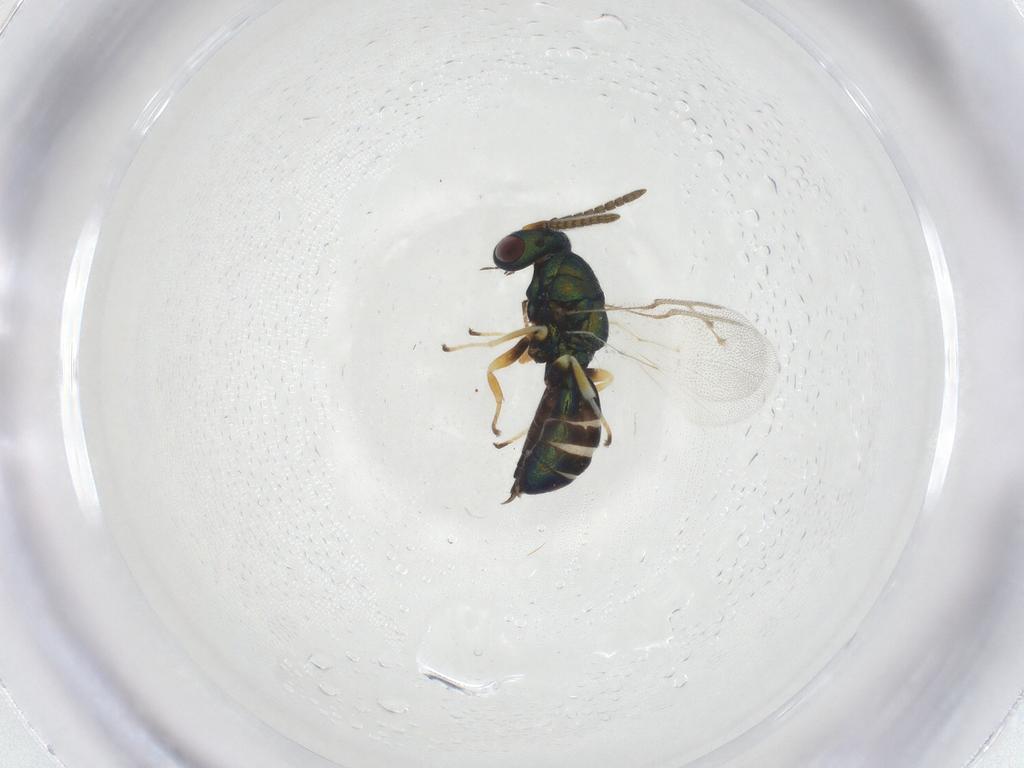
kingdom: Animalia
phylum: Arthropoda
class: Insecta
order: Hymenoptera
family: Pteromalidae
